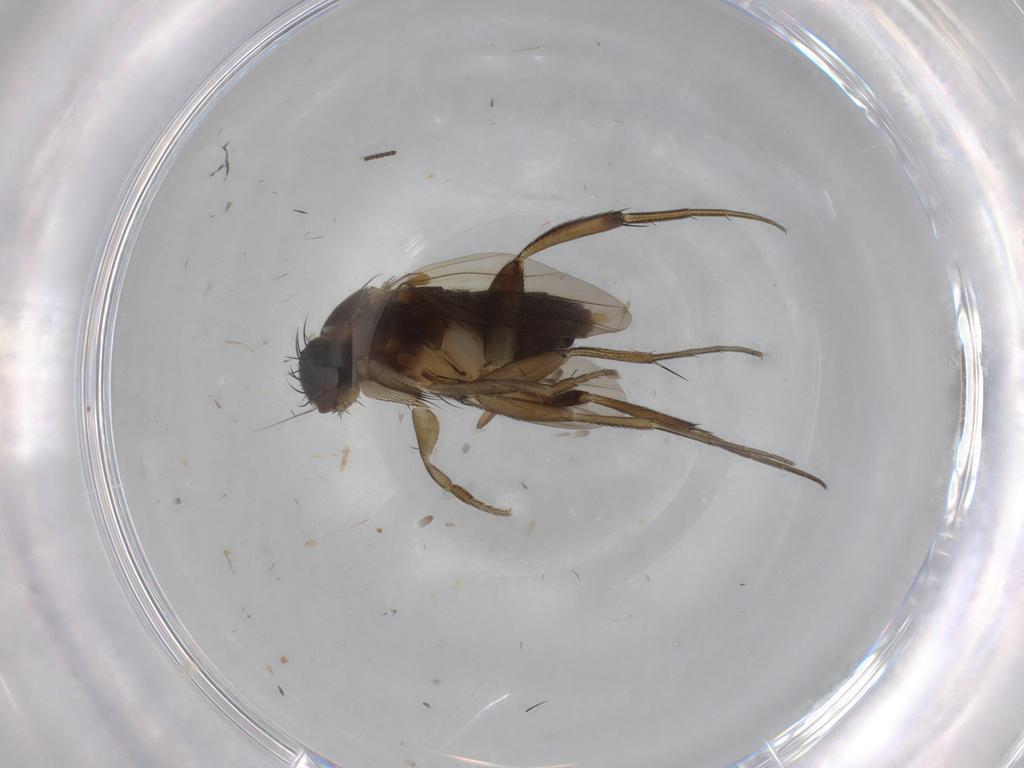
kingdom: Animalia
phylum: Arthropoda
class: Insecta
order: Diptera
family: Phoridae
